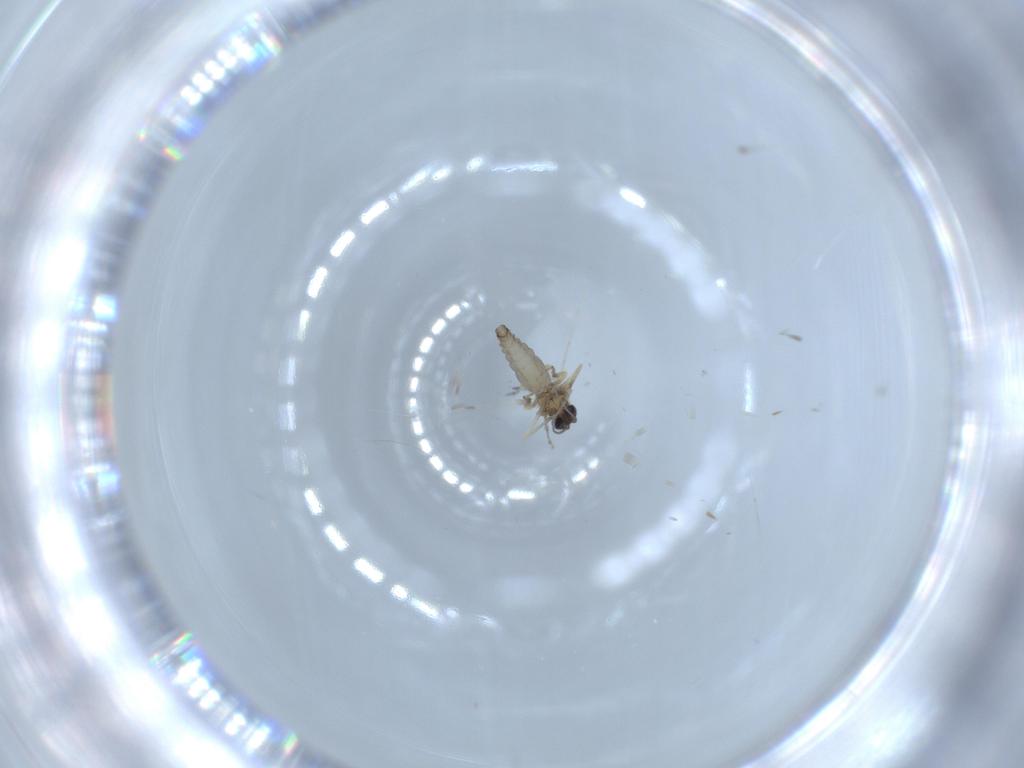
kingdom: Animalia
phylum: Arthropoda
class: Insecta
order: Diptera
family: Ceratopogonidae
